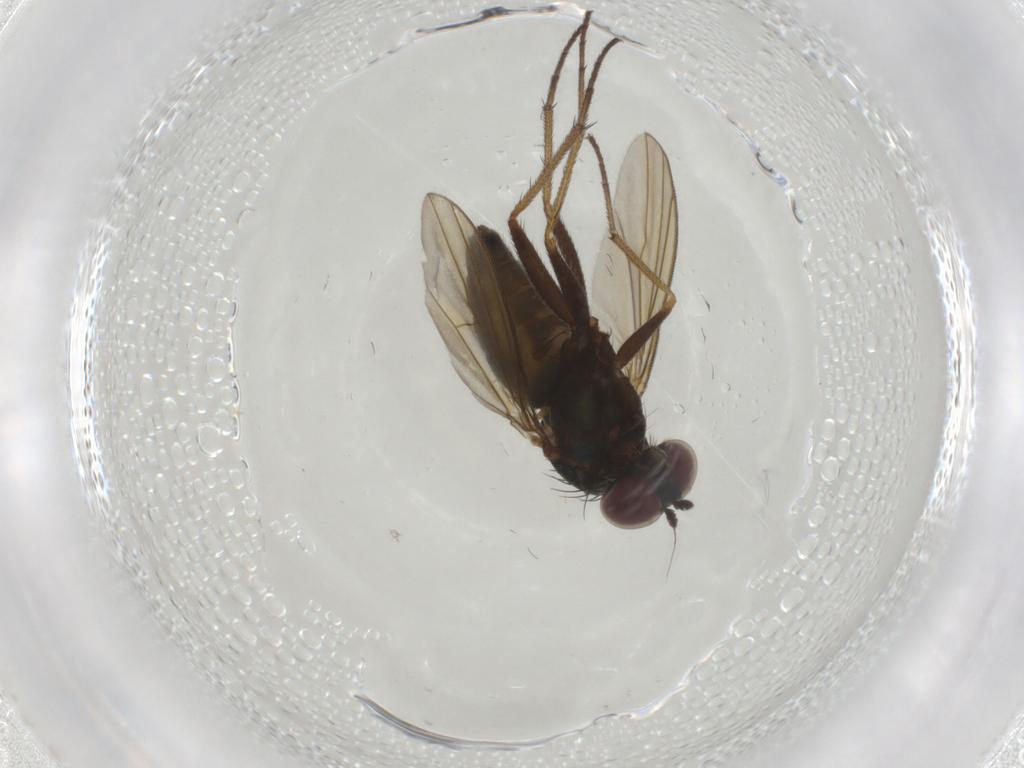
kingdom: Animalia
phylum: Arthropoda
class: Insecta
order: Diptera
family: Dolichopodidae
